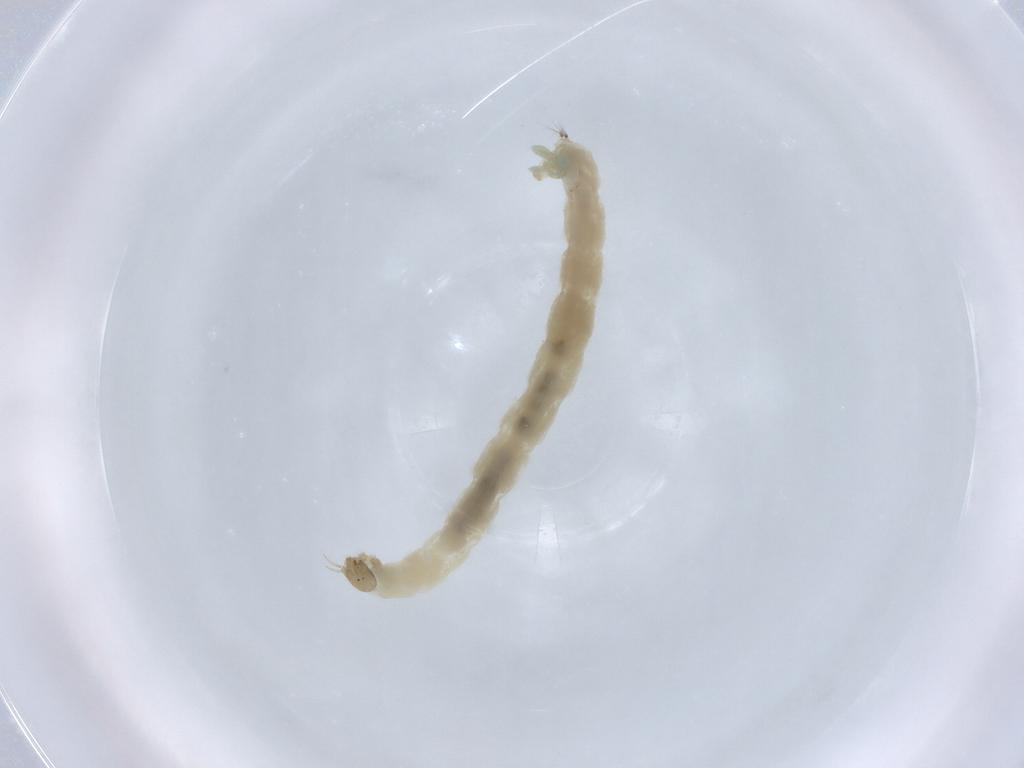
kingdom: Animalia
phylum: Arthropoda
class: Insecta
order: Diptera
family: Chironomidae
